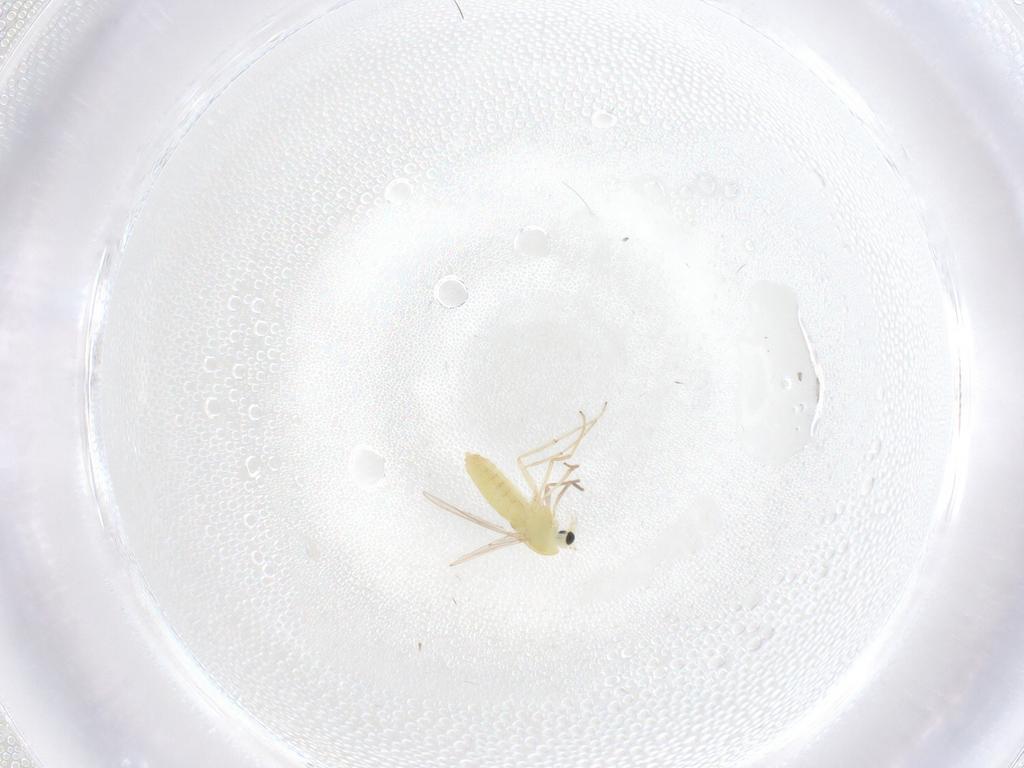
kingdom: Animalia
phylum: Arthropoda
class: Insecta
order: Diptera
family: Chironomidae
